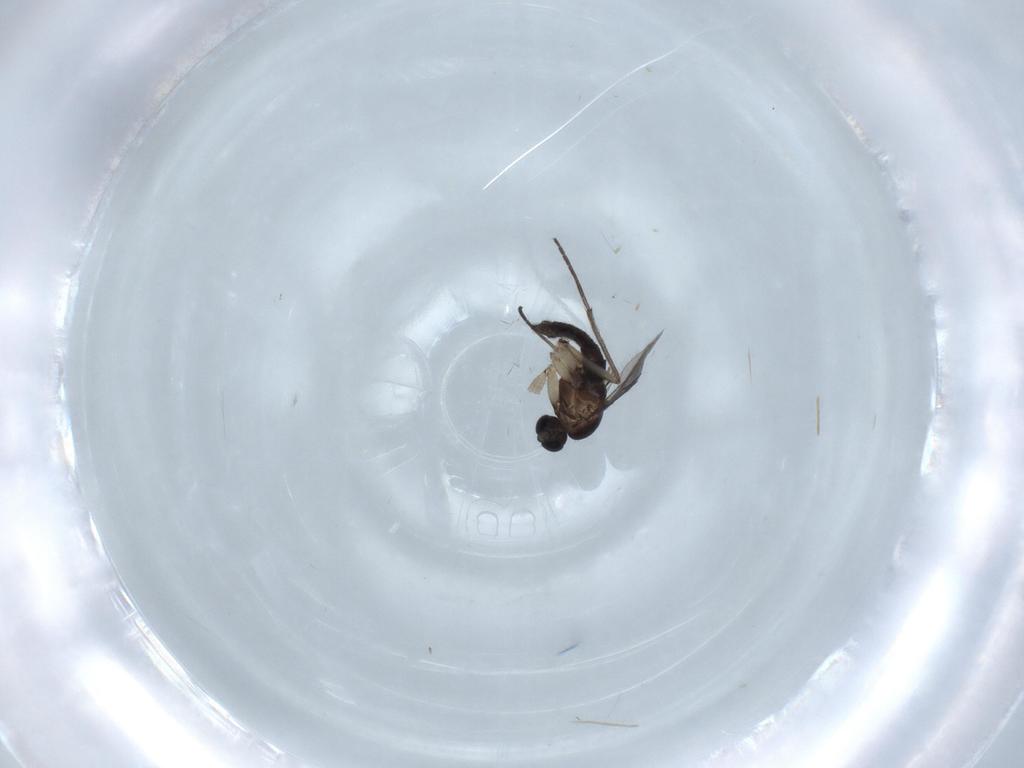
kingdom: Animalia
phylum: Arthropoda
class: Insecta
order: Diptera
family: Sciaridae
